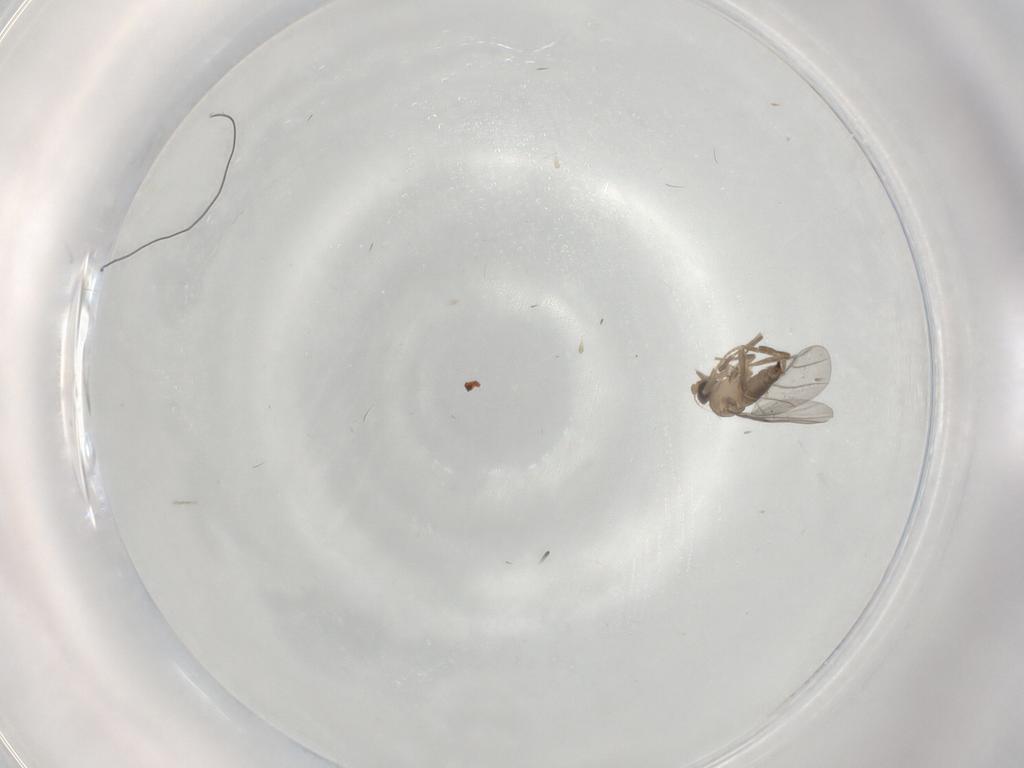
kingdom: Animalia
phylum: Arthropoda
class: Insecta
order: Diptera
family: Sciaridae
